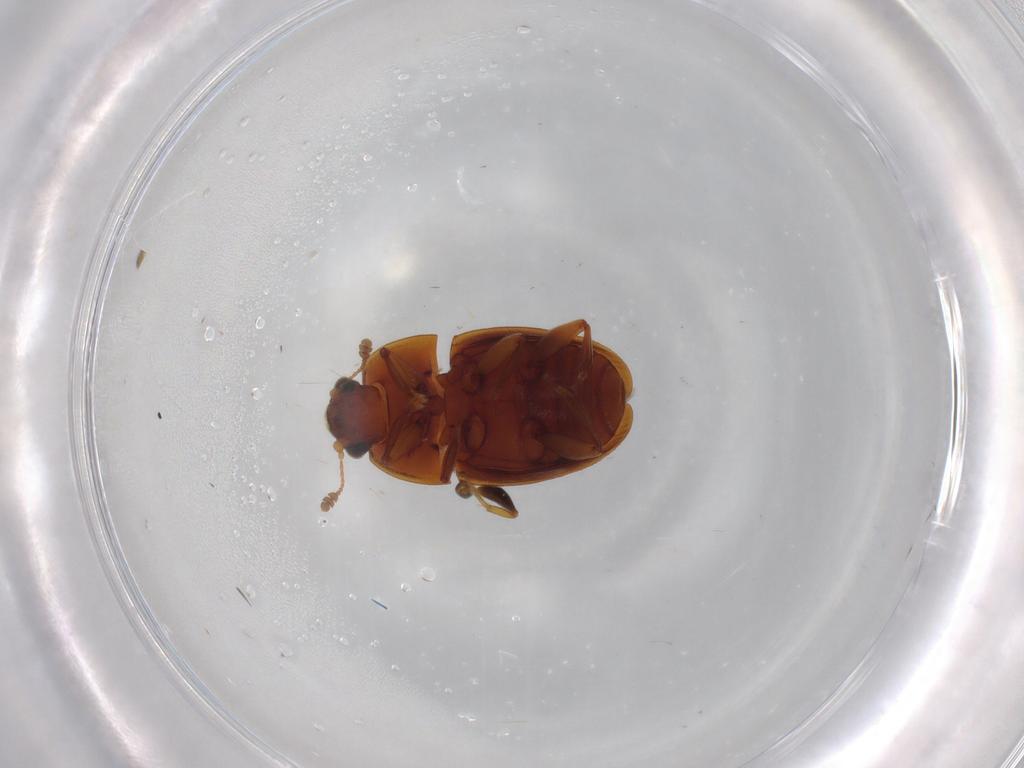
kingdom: Animalia
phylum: Arthropoda
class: Insecta
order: Coleoptera
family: Nitidulidae
